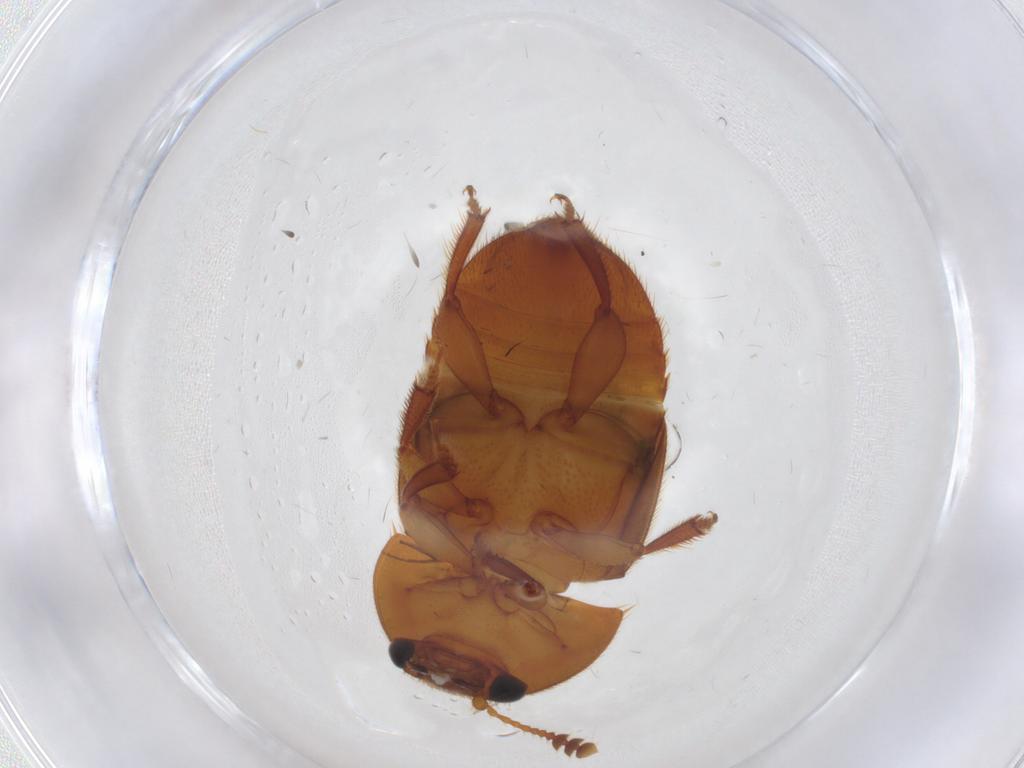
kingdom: Animalia
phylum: Arthropoda
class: Insecta
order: Coleoptera
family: Nitidulidae
